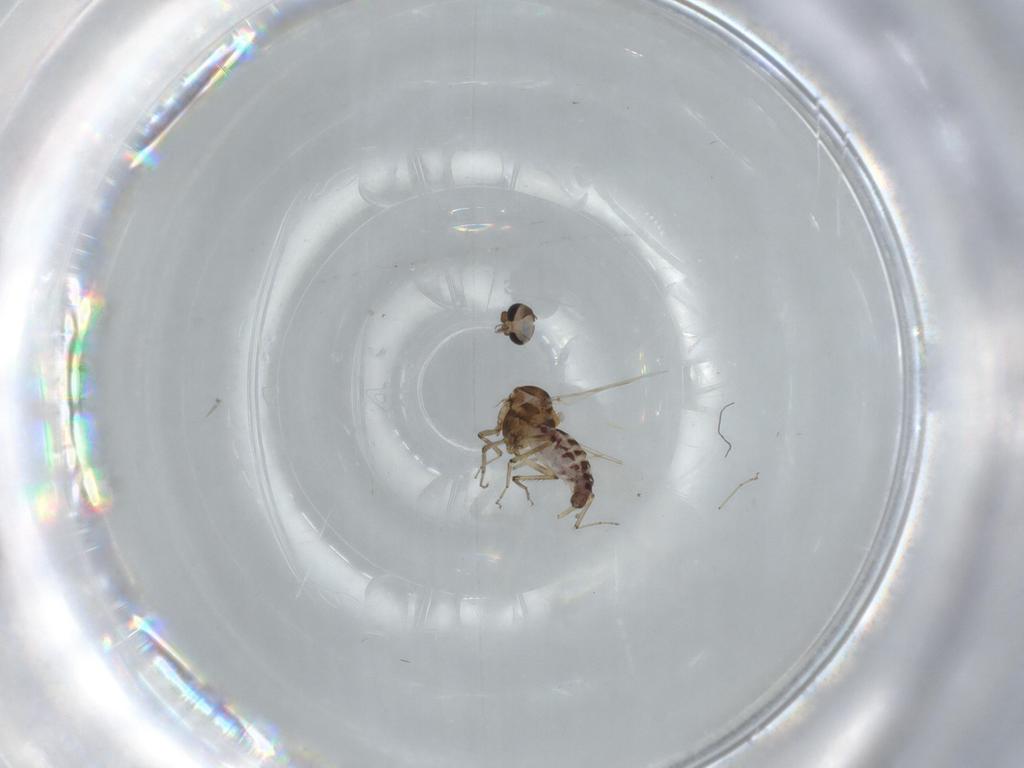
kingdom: Animalia
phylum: Arthropoda
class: Insecta
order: Diptera
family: Ceratopogonidae
